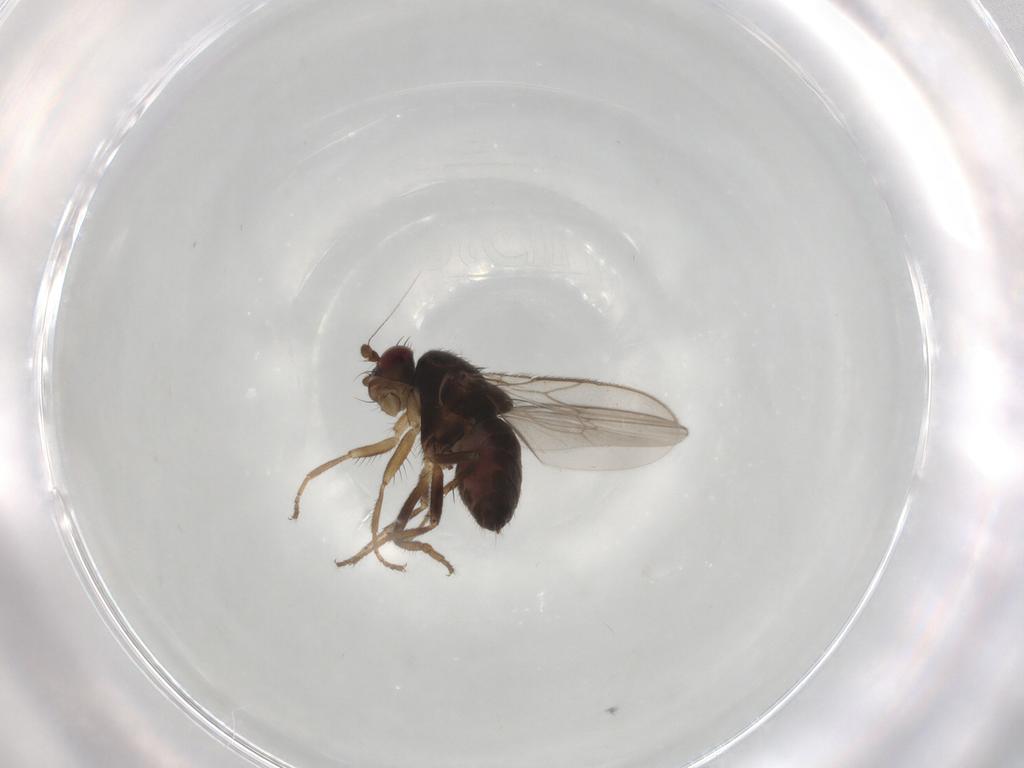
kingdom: Animalia
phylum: Arthropoda
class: Insecta
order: Diptera
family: Sphaeroceridae
